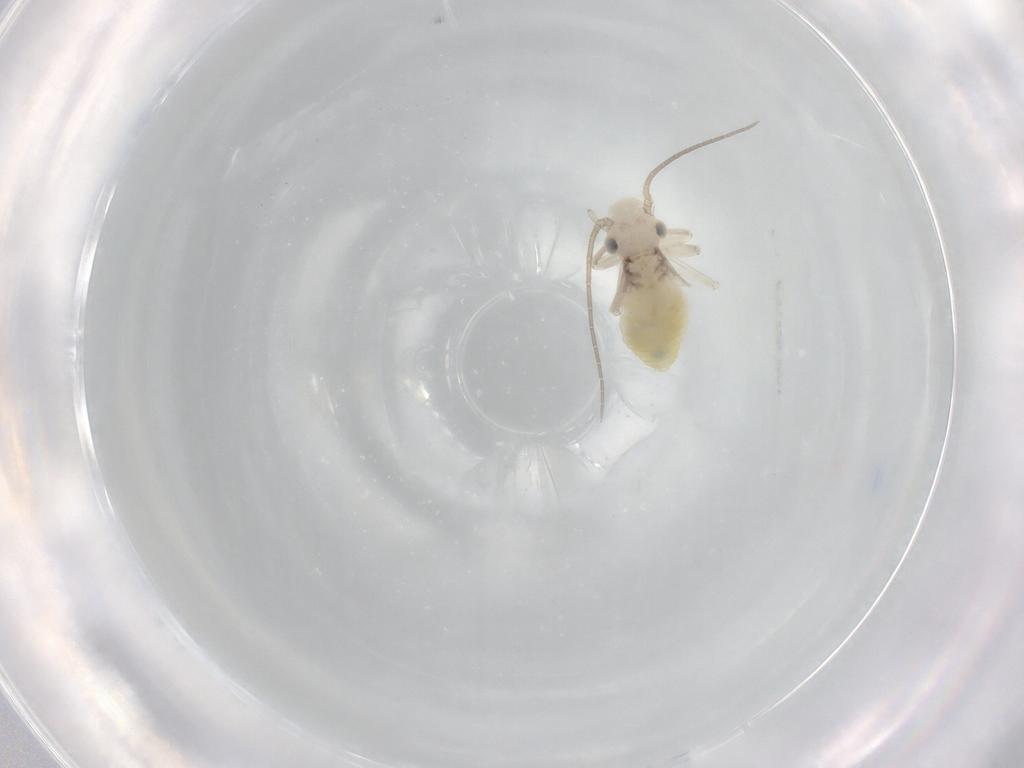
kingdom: Animalia
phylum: Arthropoda
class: Insecta
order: Psocodea
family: Caeciliusidae
